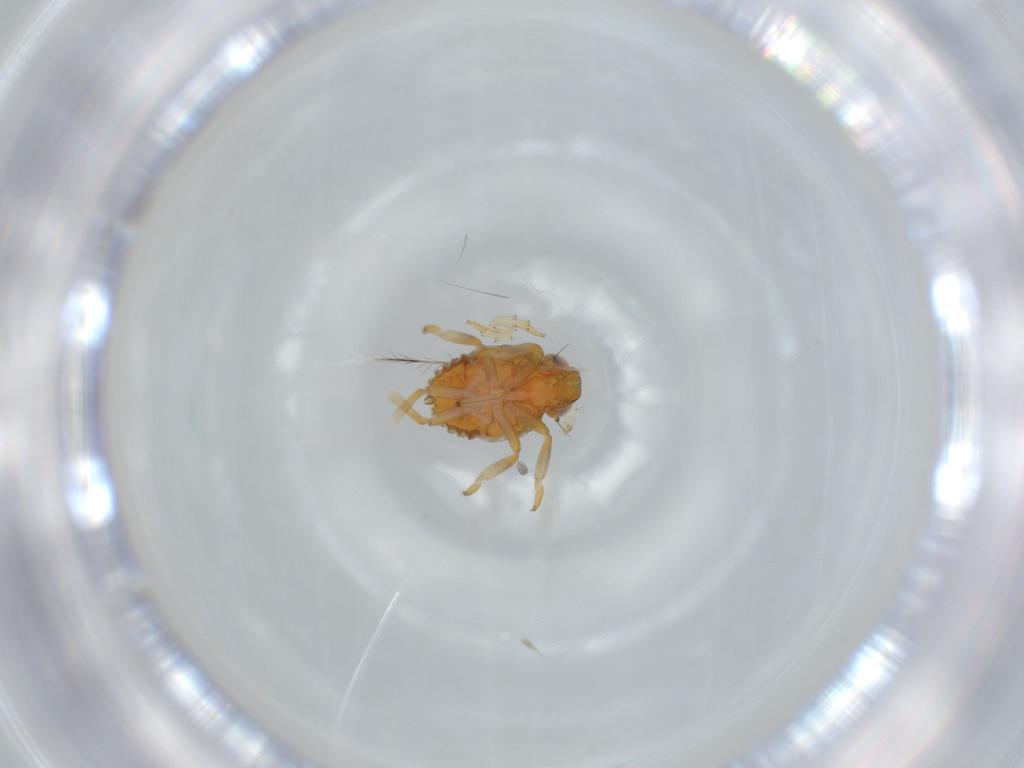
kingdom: Animalia
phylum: Arthropoda
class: Insecta
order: Hemiptera
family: Issidae
